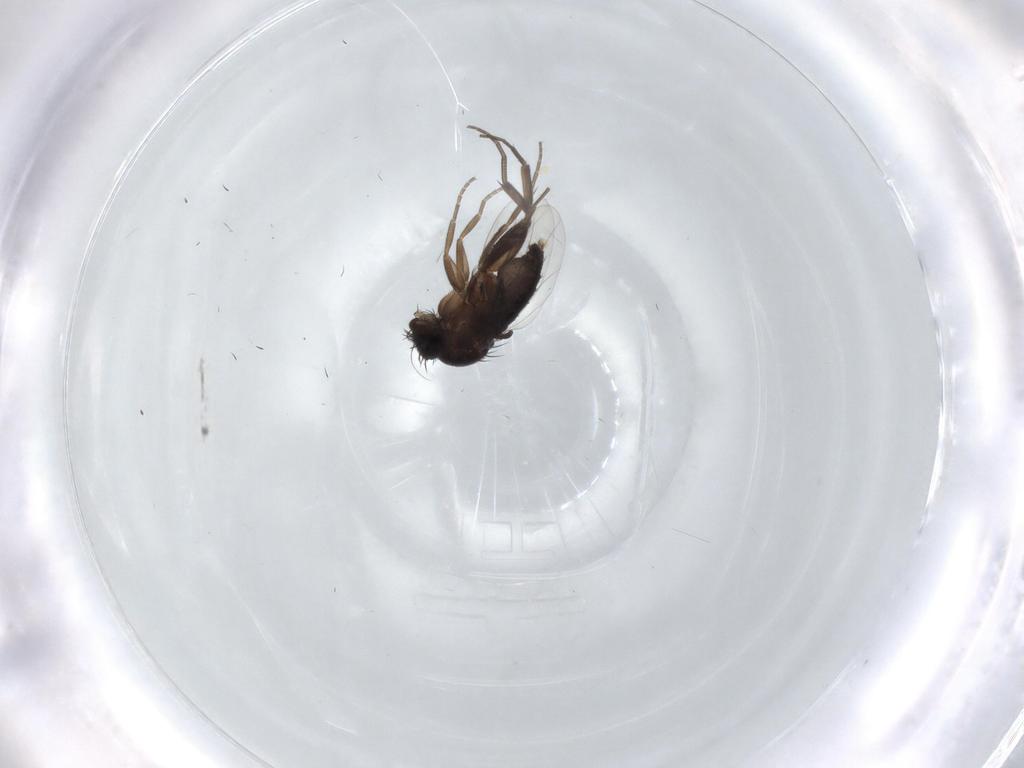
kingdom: Animalia
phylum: Arthropoda
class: Insecta
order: Diptera
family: Phoridae
